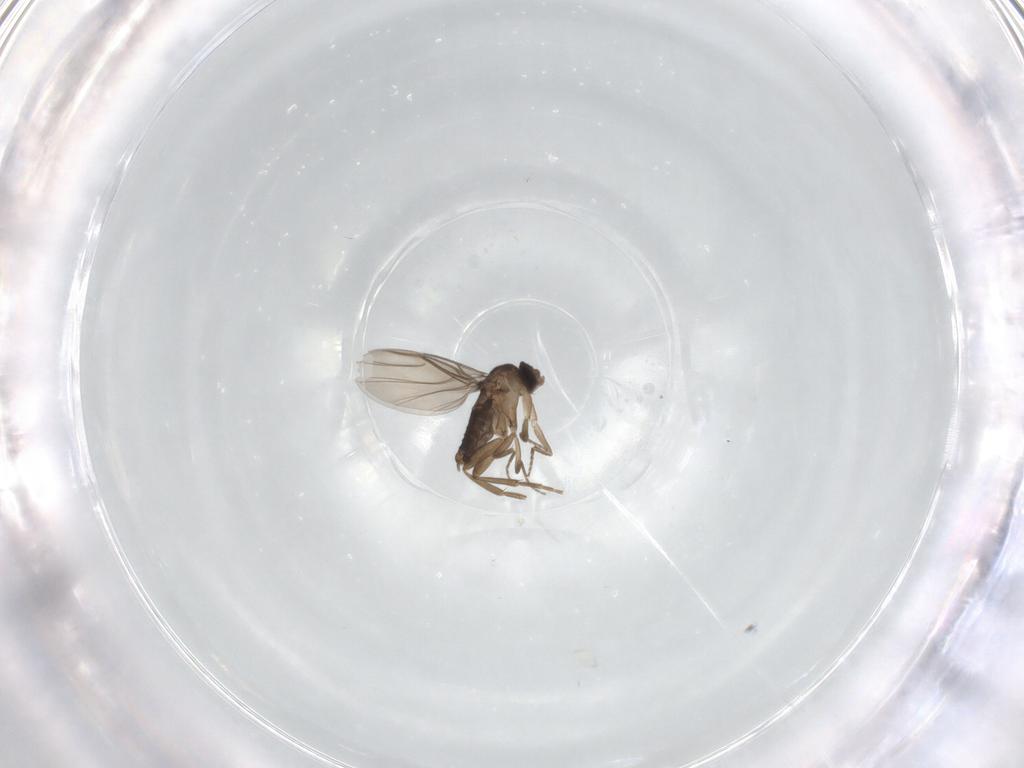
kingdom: Animalia
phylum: Arthropoda
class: Insecta
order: Diptera
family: Phoridae
